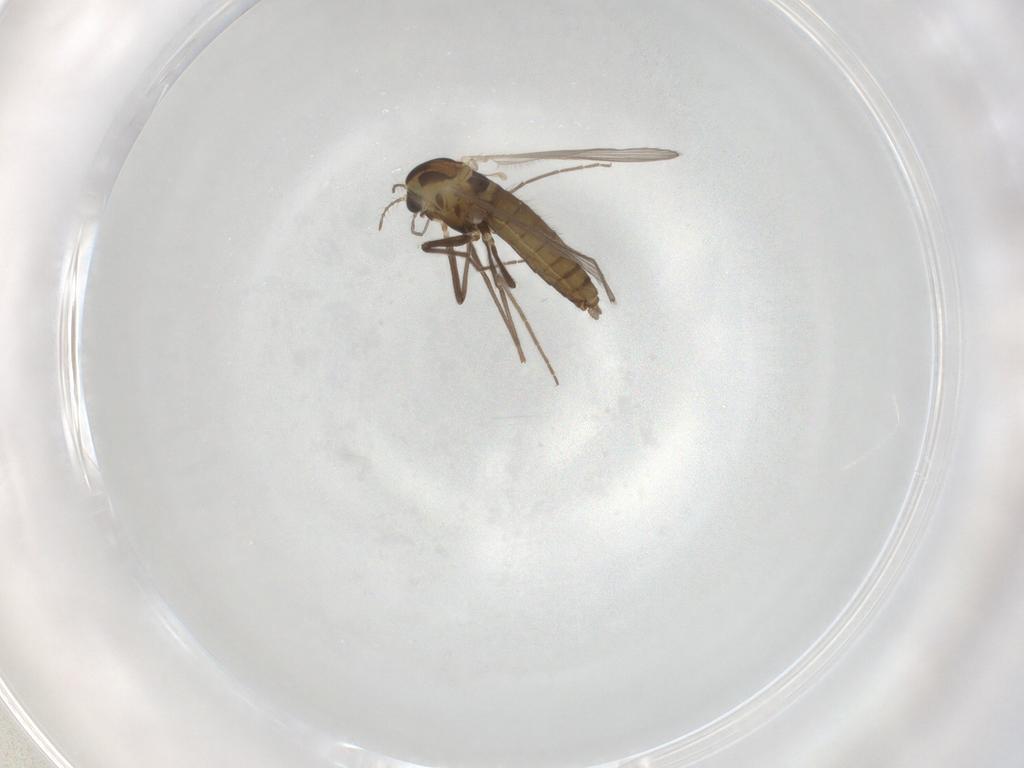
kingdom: Animalia
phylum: Arthropoda
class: Insecta
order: Diptera
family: Chironomidae
